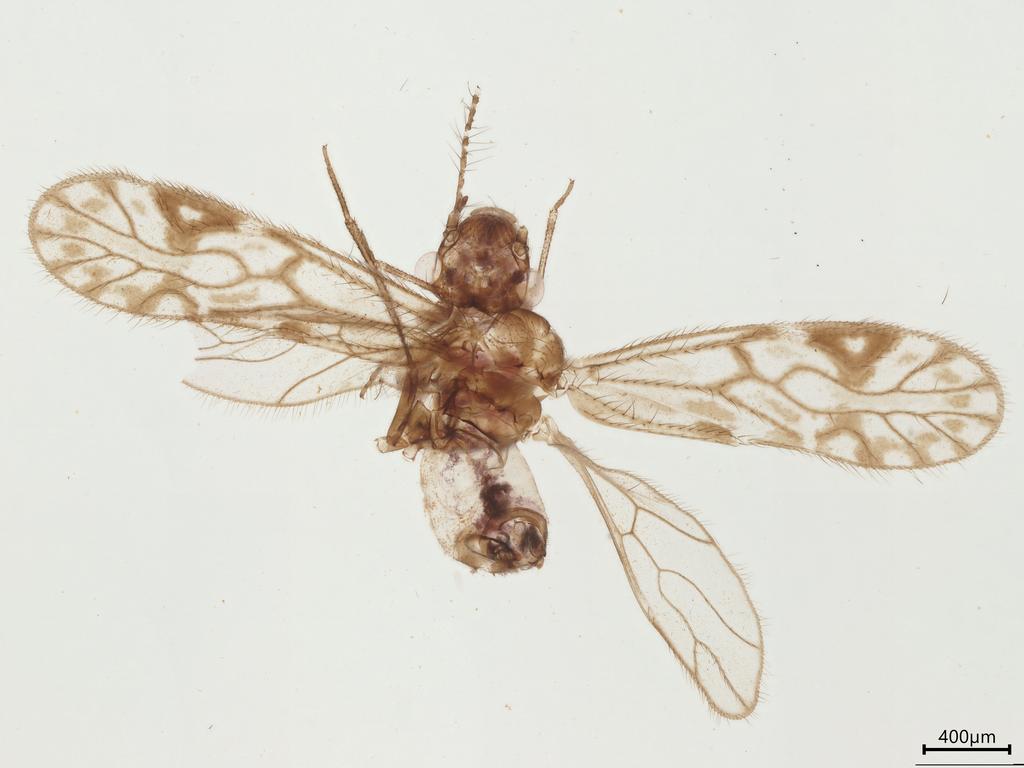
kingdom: Animalia
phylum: Arthropoda
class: Insecta
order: Psocodea
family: Cladiopsocidae
